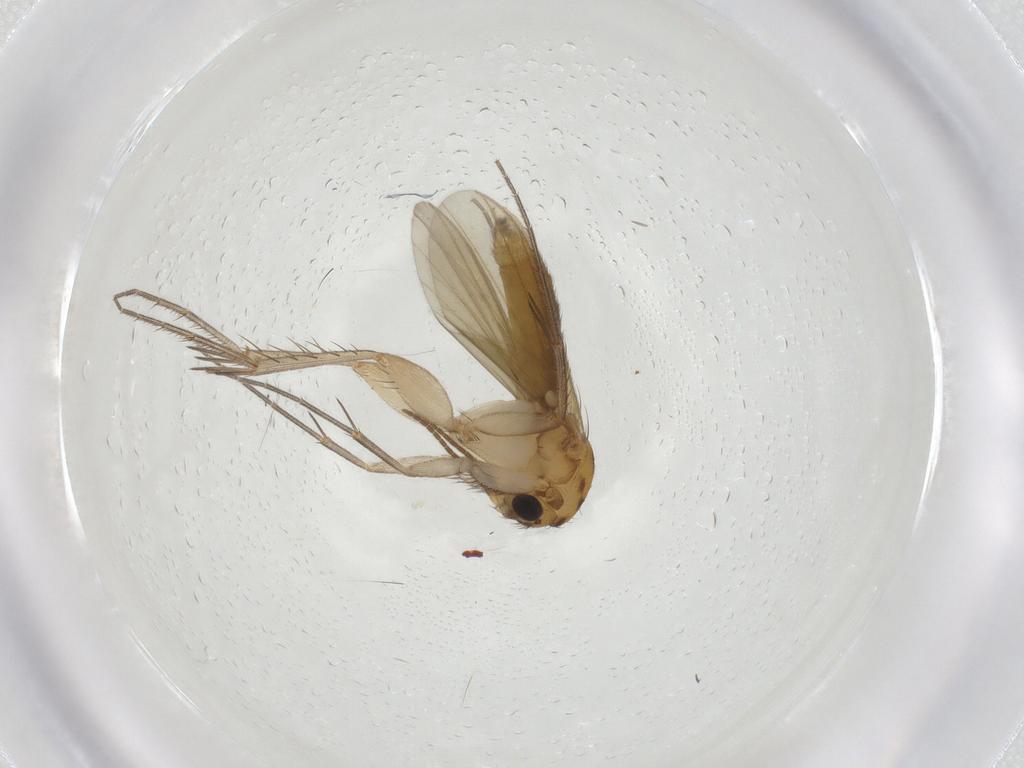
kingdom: Animalia
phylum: Arthropoda
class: Insecta
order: Diptera
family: Mycetophilidae
